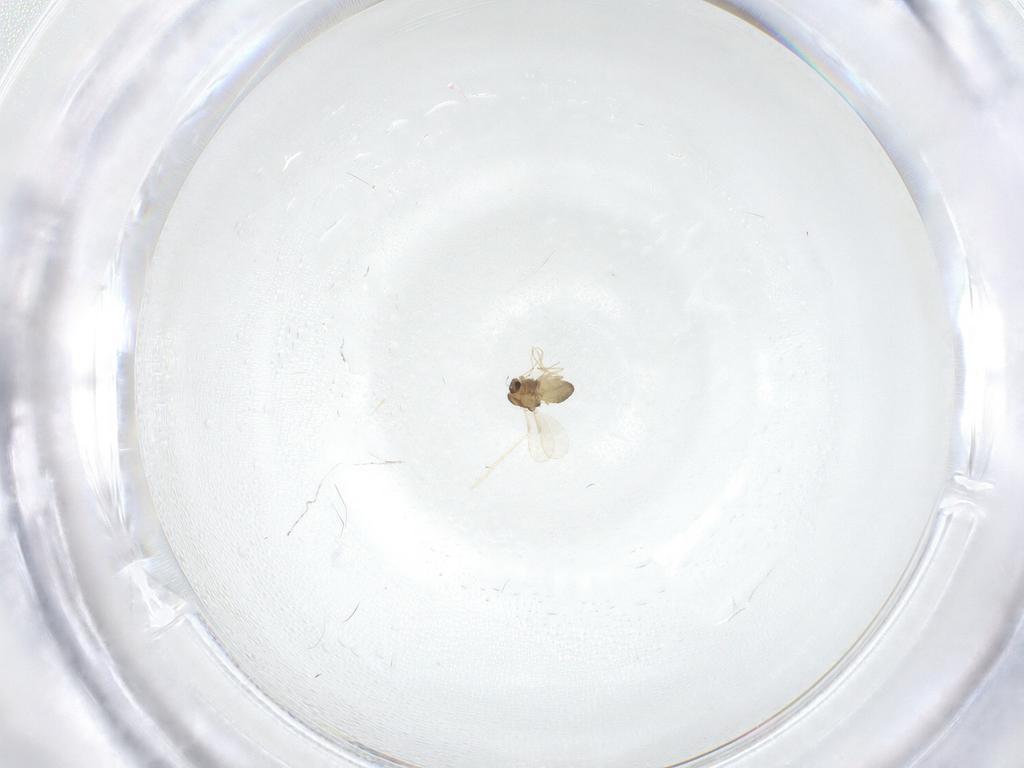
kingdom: Animalia
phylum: Arthropoda
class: Insecta
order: Diptera
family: Chironomidae
